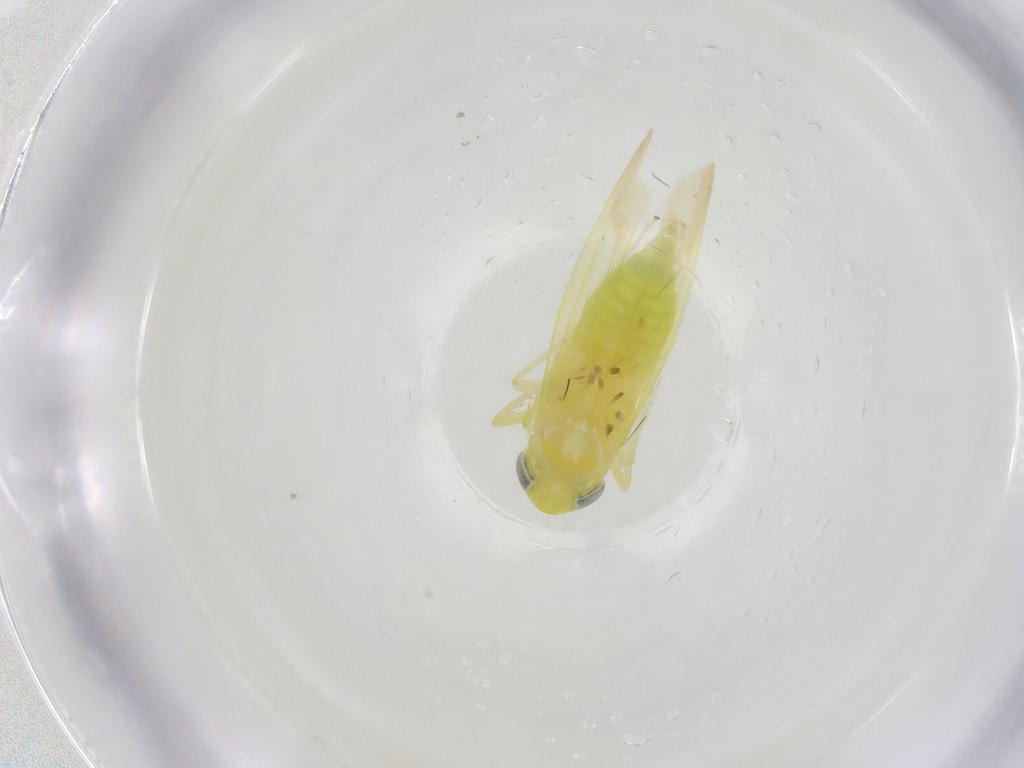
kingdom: Animalia
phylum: Arthropoda
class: Insecta
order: Hemiptera
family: Cicadellidae
